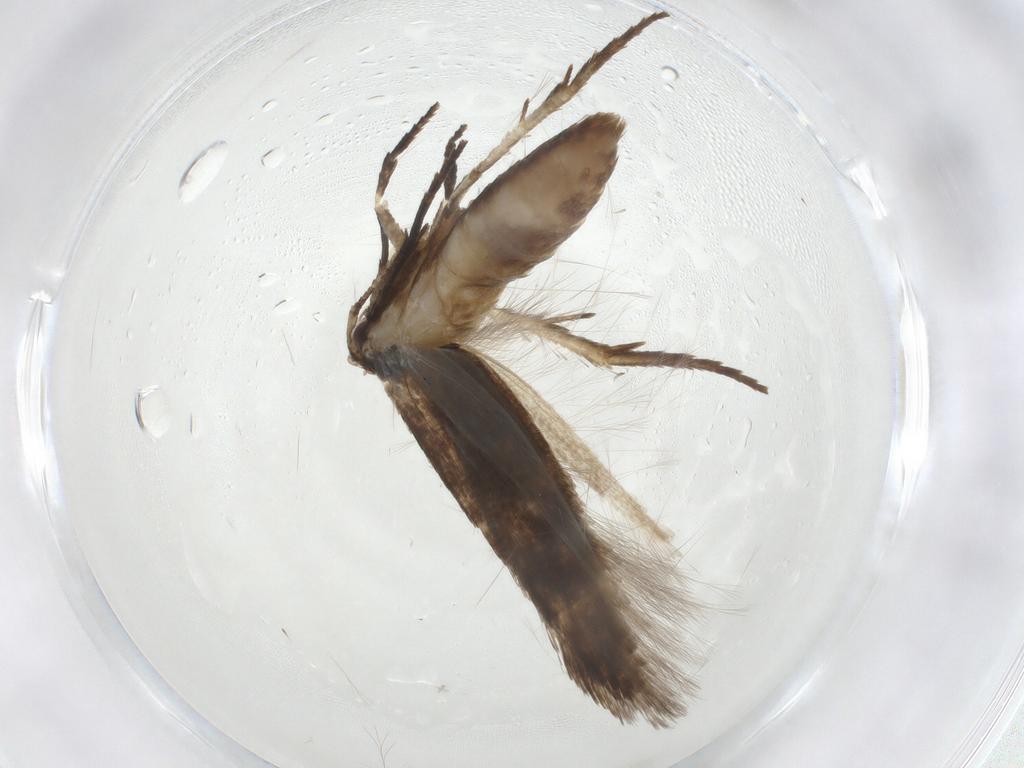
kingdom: Animalia
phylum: Arthropoda
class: Insecta
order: Lepidoptera
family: Cosmopterigidae
